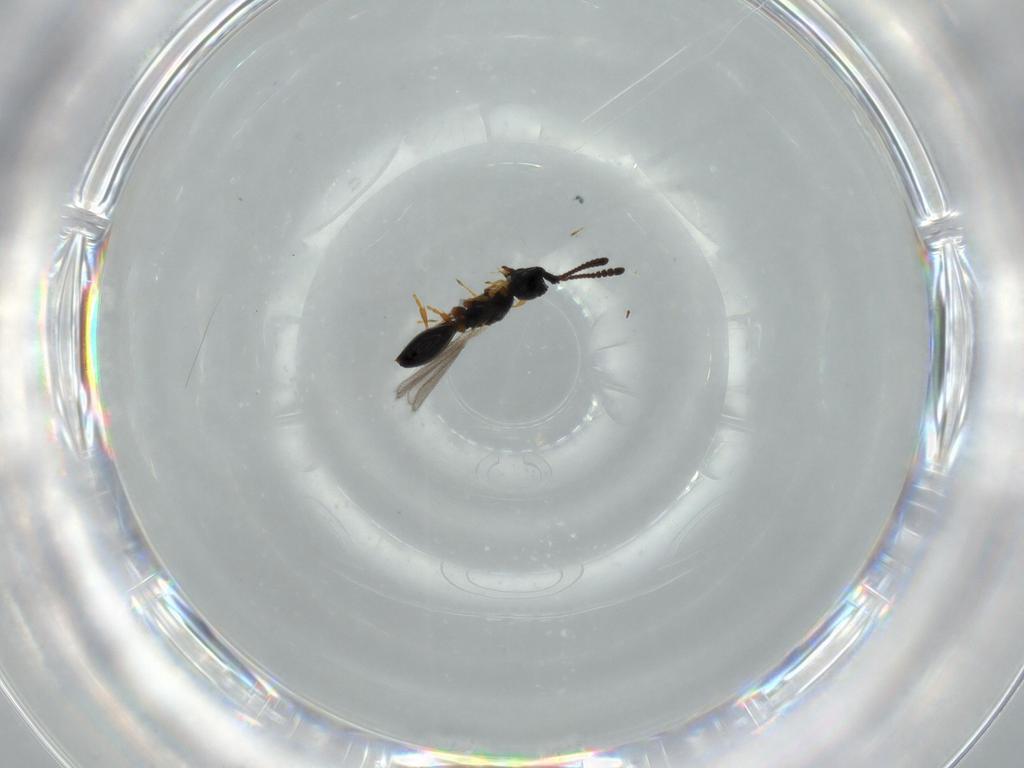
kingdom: Animalia
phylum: Arthropoda
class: Insecta
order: Hymenoptera
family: Diapriidae
